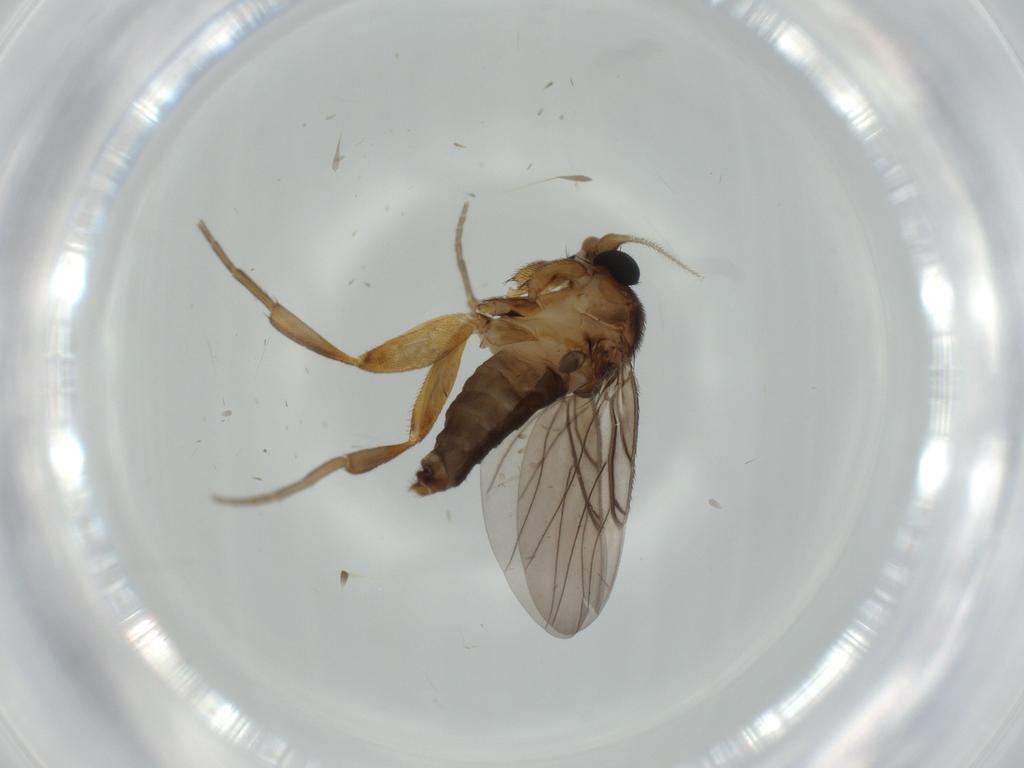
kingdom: Animalia
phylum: Arthropoda
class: Insecta
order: Diptera
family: Phoridae
